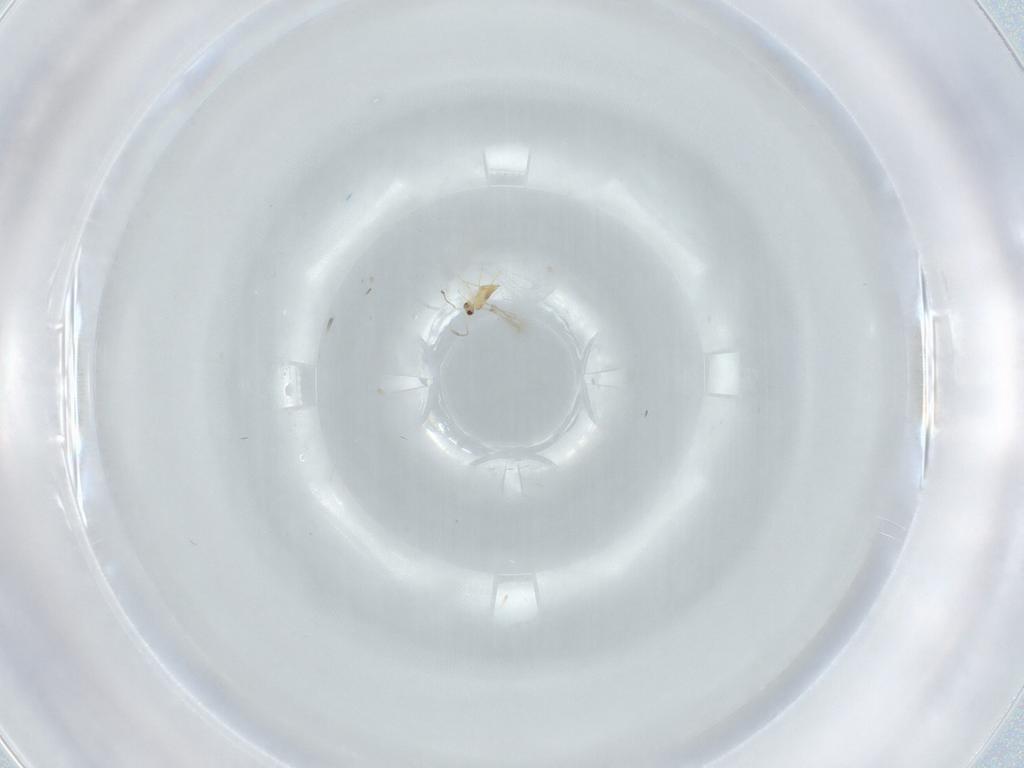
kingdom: Animalia
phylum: Arthropoda
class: Insecta
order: Hymenoptera
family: Mymaridae
